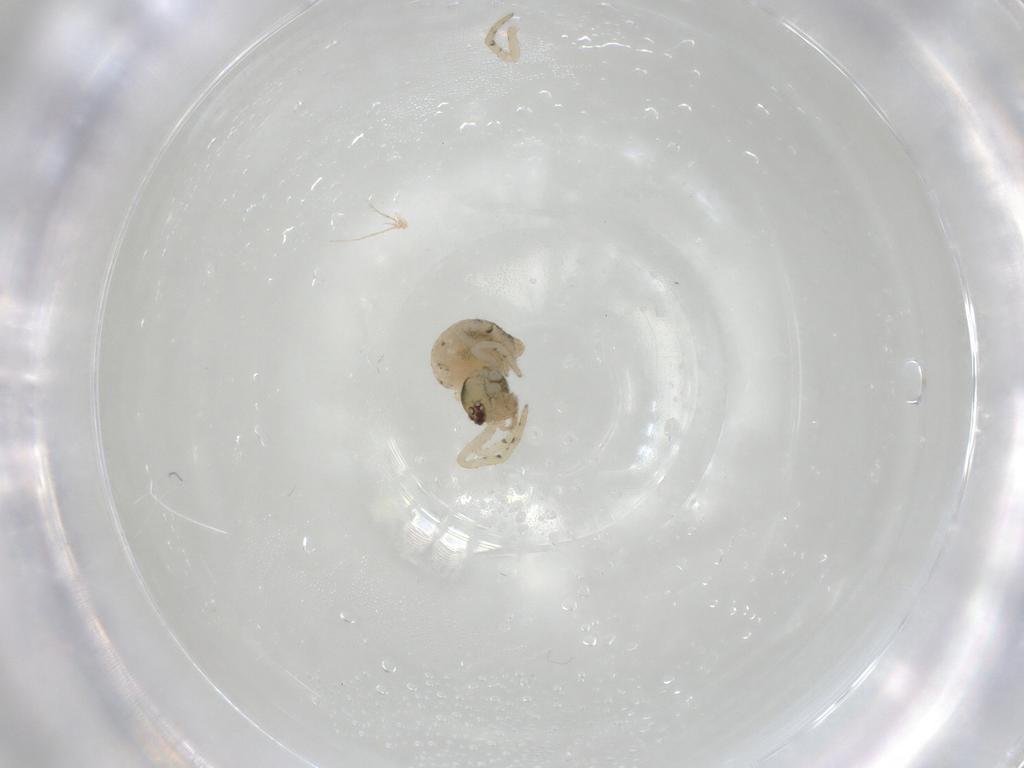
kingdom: Animalia
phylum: Arthropoda
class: Arachnida
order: Araneae
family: Theridiidae
